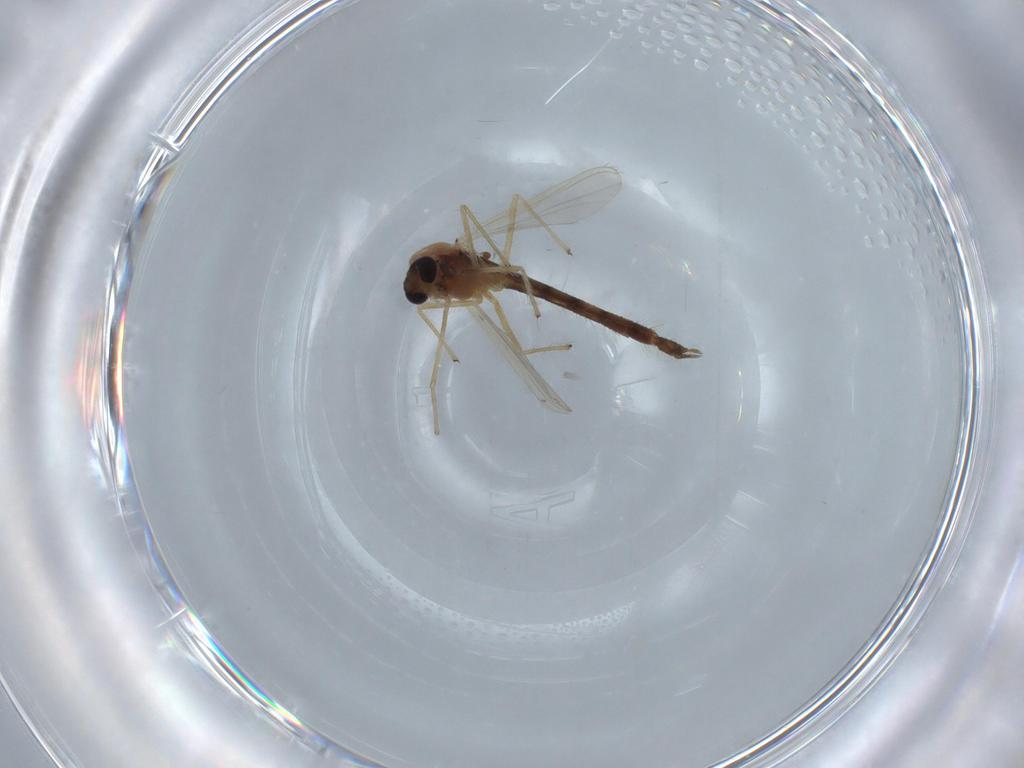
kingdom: Animalia
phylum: Arthropoda
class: Insecta
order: Diptera
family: Chironomidae
